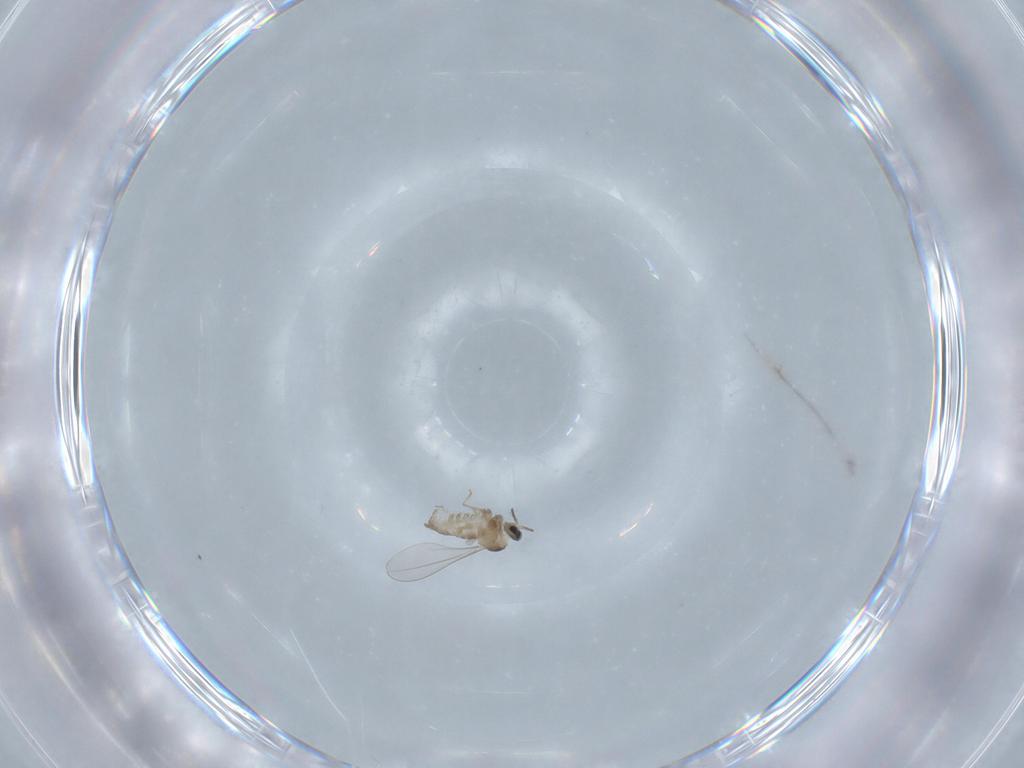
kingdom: Animalia
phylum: Arthropoda
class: Insecta
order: Diptera
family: Cecidomyiidae
